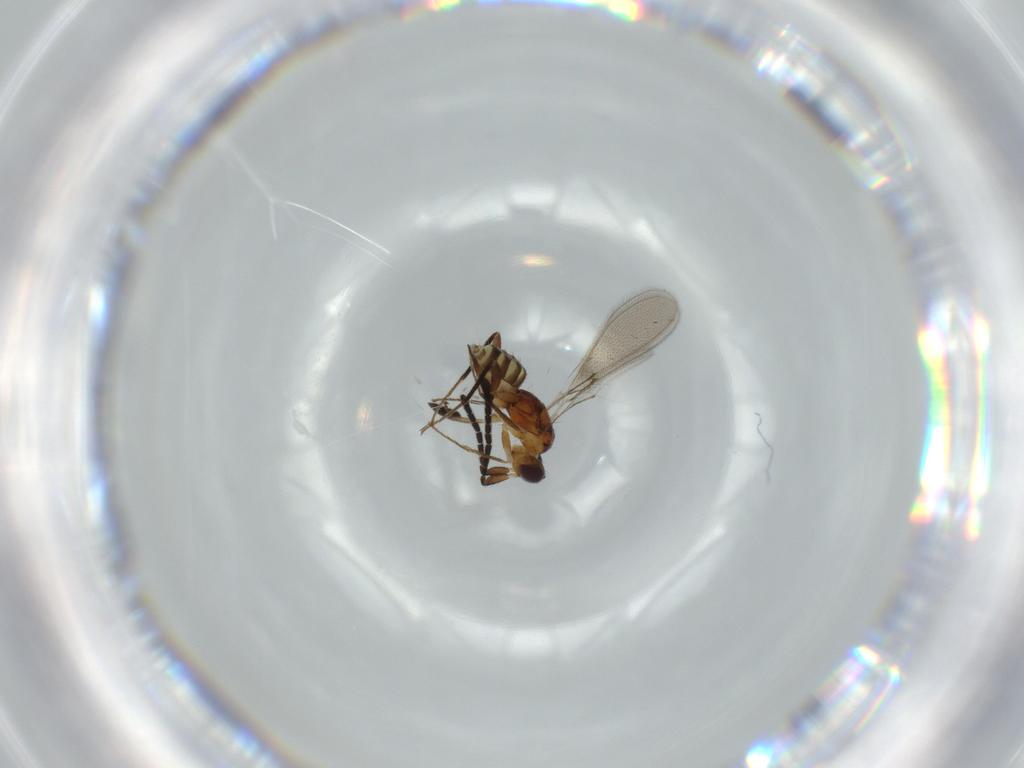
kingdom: Animalia
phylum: Arthropoda
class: Insecta
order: Hymenoptera
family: Mymaridae
